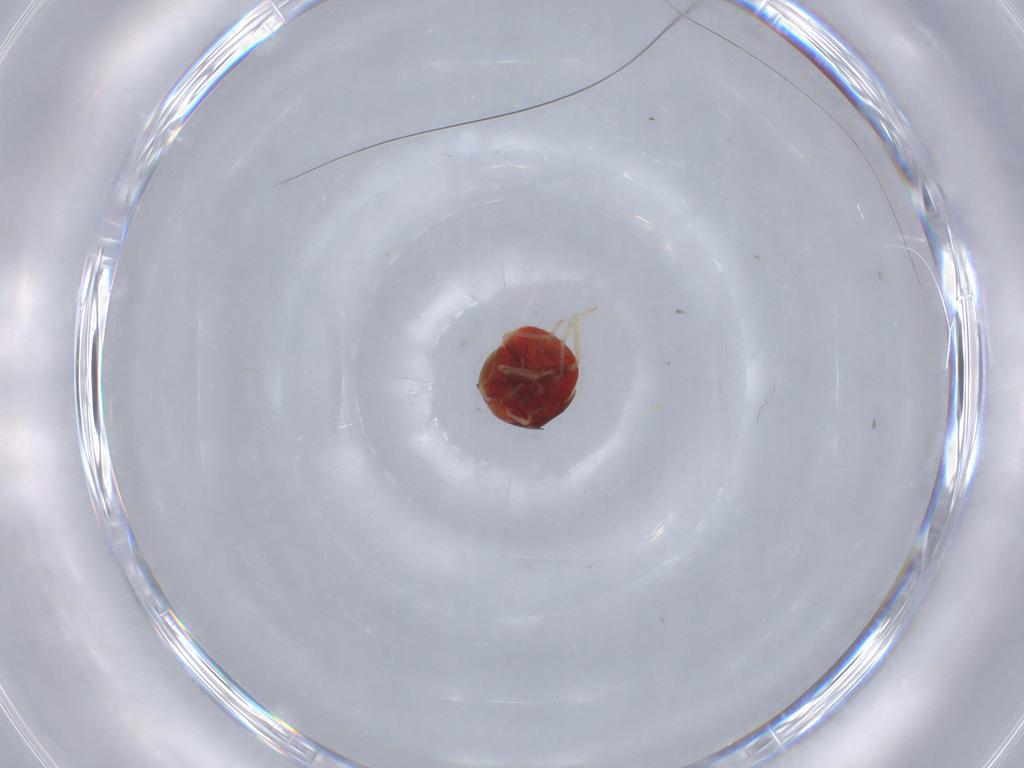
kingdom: Animalia
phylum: Arthropoda
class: Insecta
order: Hemiptera
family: Anthocoridae
